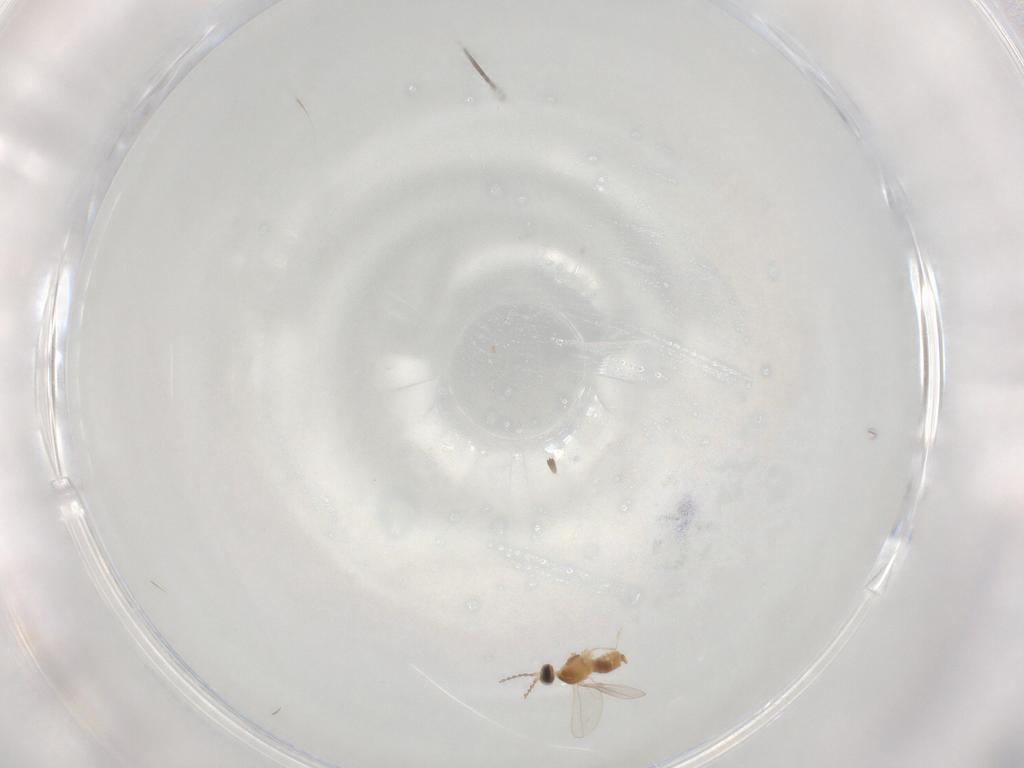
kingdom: Animalia
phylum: Arthropoda
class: Insecta
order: Diptera
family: Cecidomyiidae
